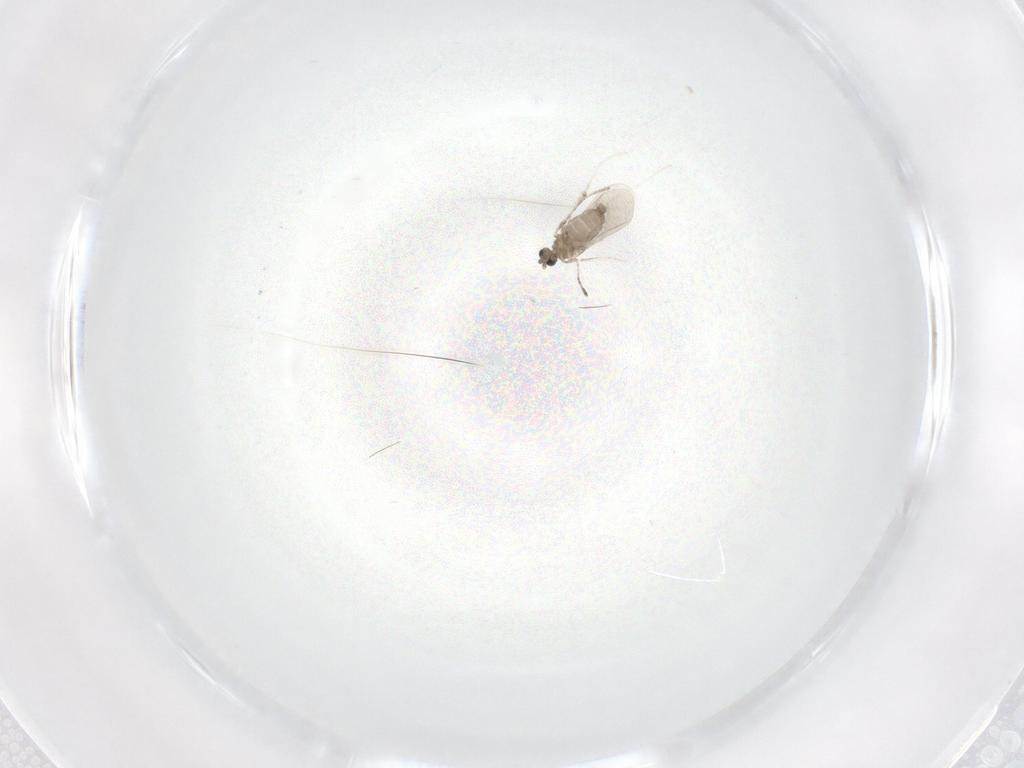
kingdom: Animalia
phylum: Arthropoda
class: Insecta
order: Diptera
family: Cecidomyiidae
